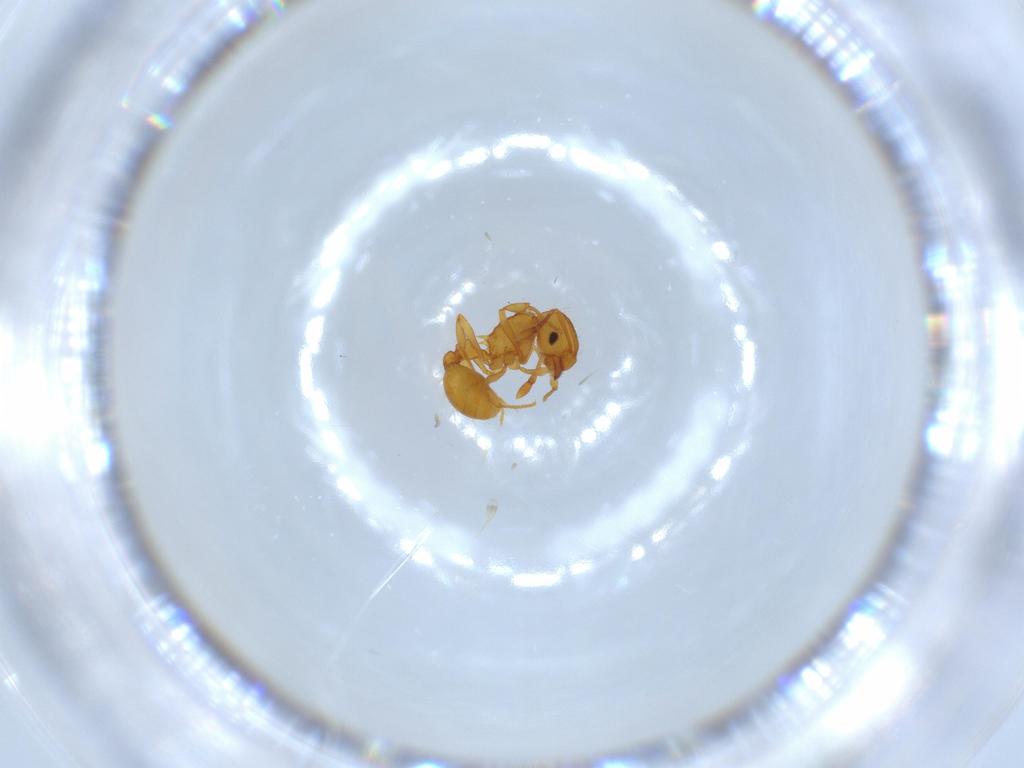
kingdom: Animalia
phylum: Arthropoda
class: Insecta
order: Hymenoptera
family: Formicidae
